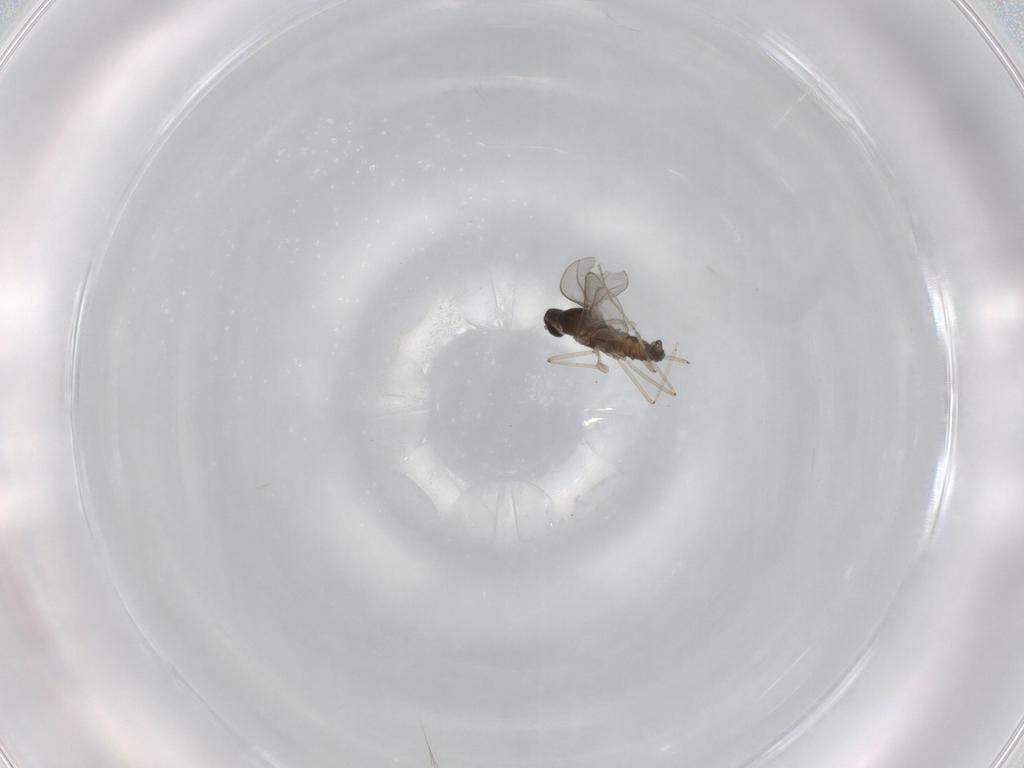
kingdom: Animalia
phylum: Arthropoda
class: Insecta
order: Diptera
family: Cecidomyiidae
